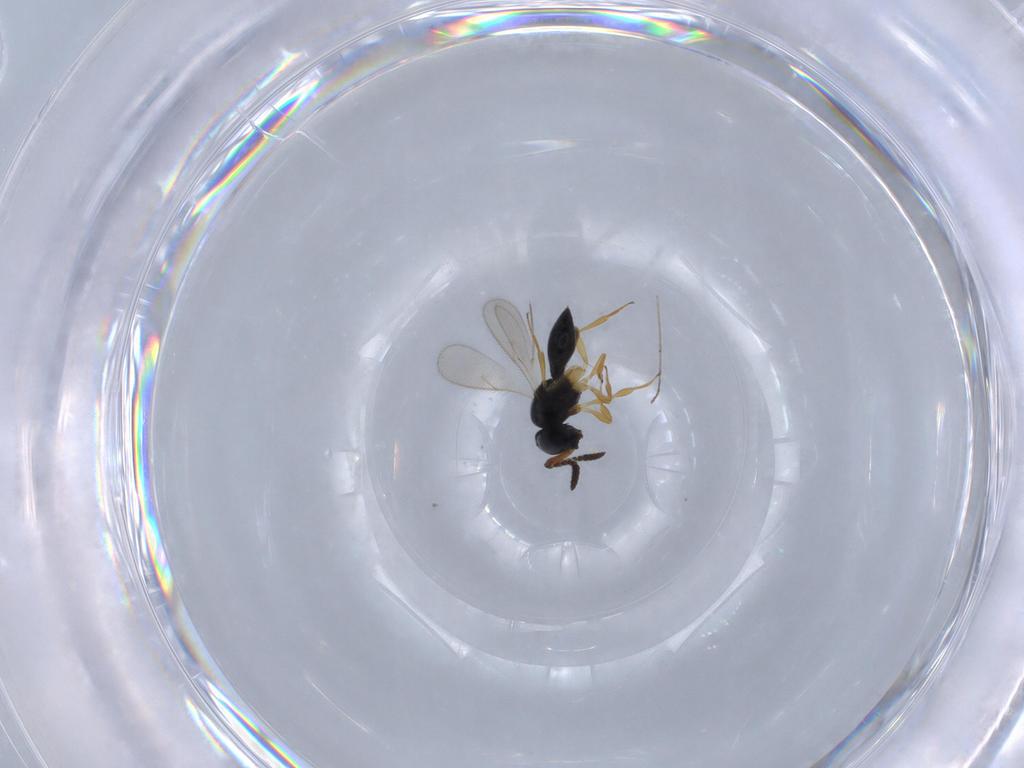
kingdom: Animalia
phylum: Arthropoda
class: Insecta
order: Hymenoptera
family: Scelionidae
